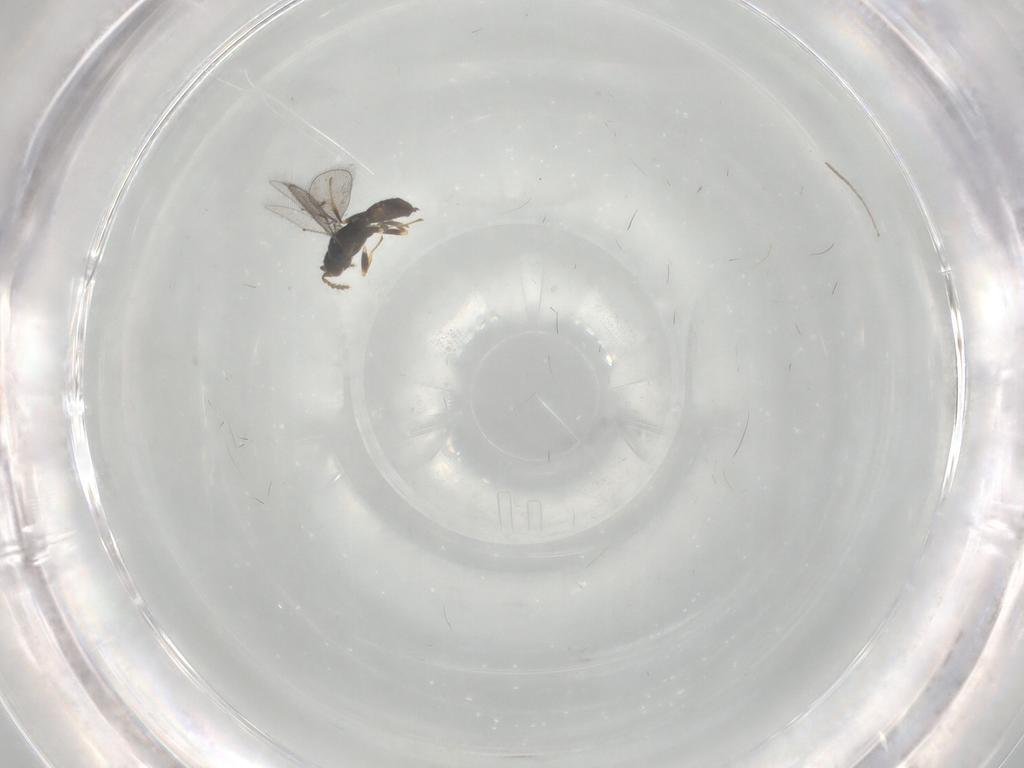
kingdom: Animalia
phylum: Arthropoda
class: Insecta
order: Hymenoptera
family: Eulophidae
